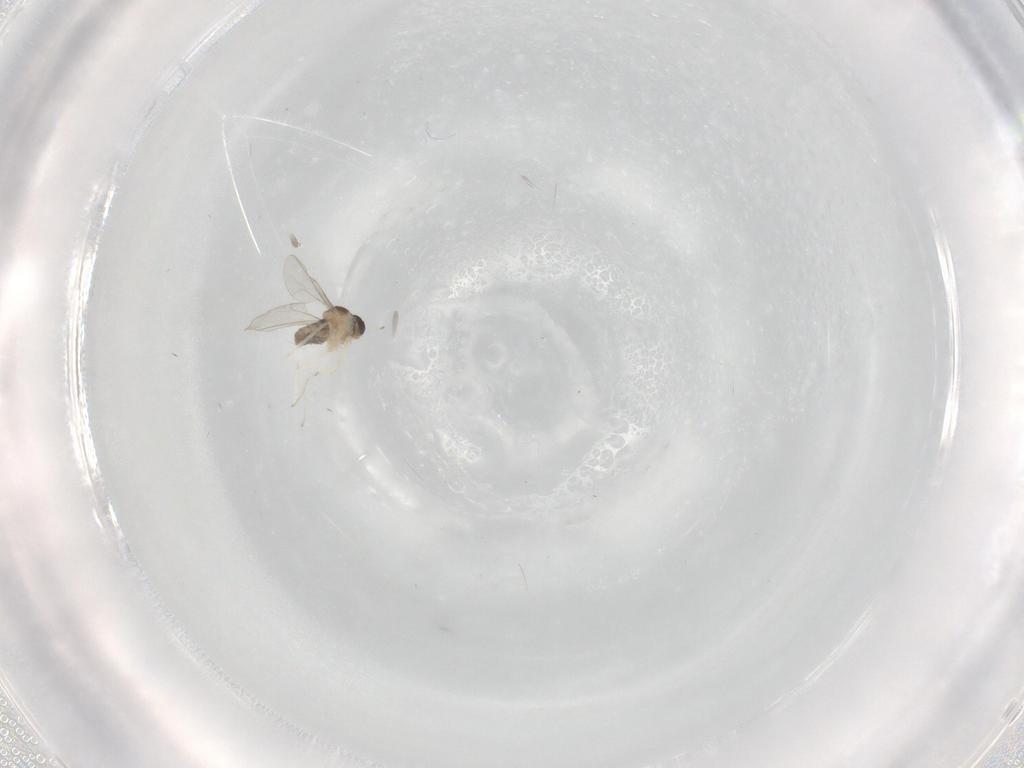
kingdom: Animalia
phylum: Arthropoda
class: Insecta
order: Diptera
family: Cecidomyiidae
